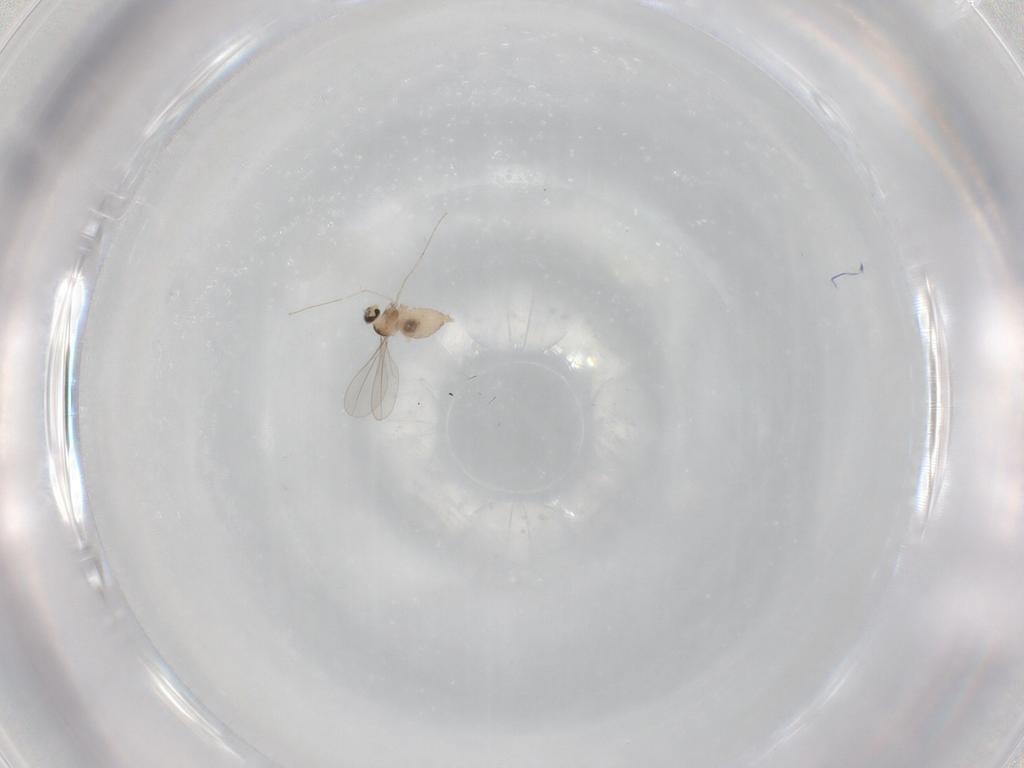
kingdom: Animalia
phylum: Arthropoda
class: Insecta
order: Diptera
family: Cecidomyiidae
